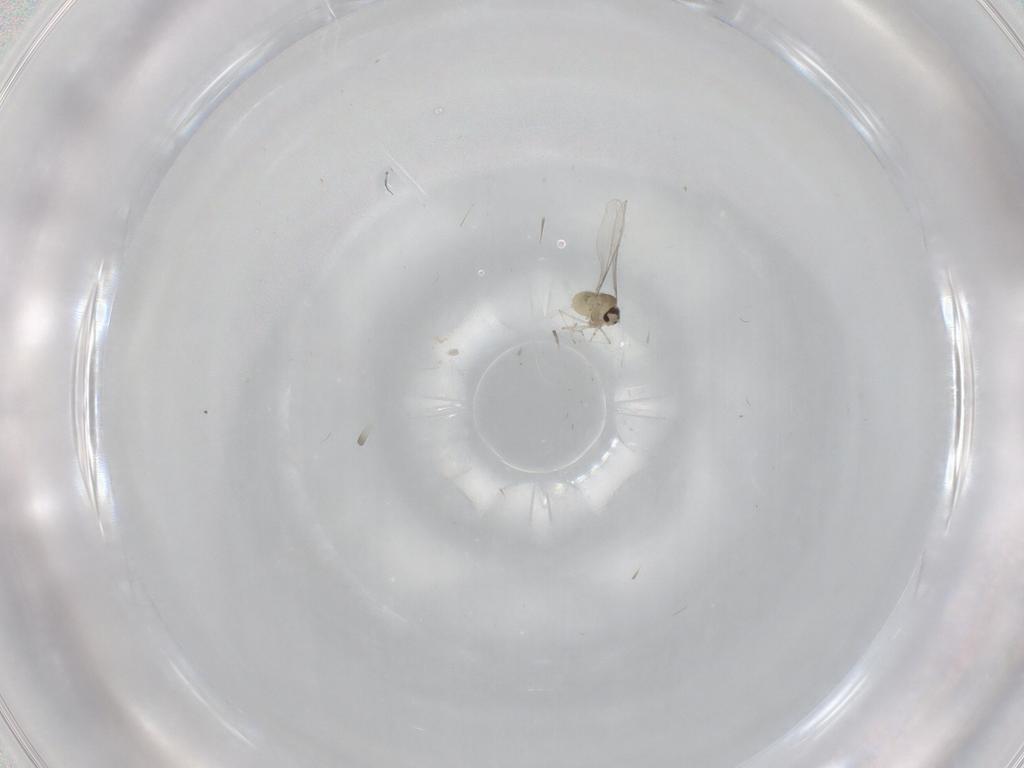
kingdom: Animalia
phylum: Arthropoda
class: Insecta
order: Diptera
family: Cecidomyiidae
